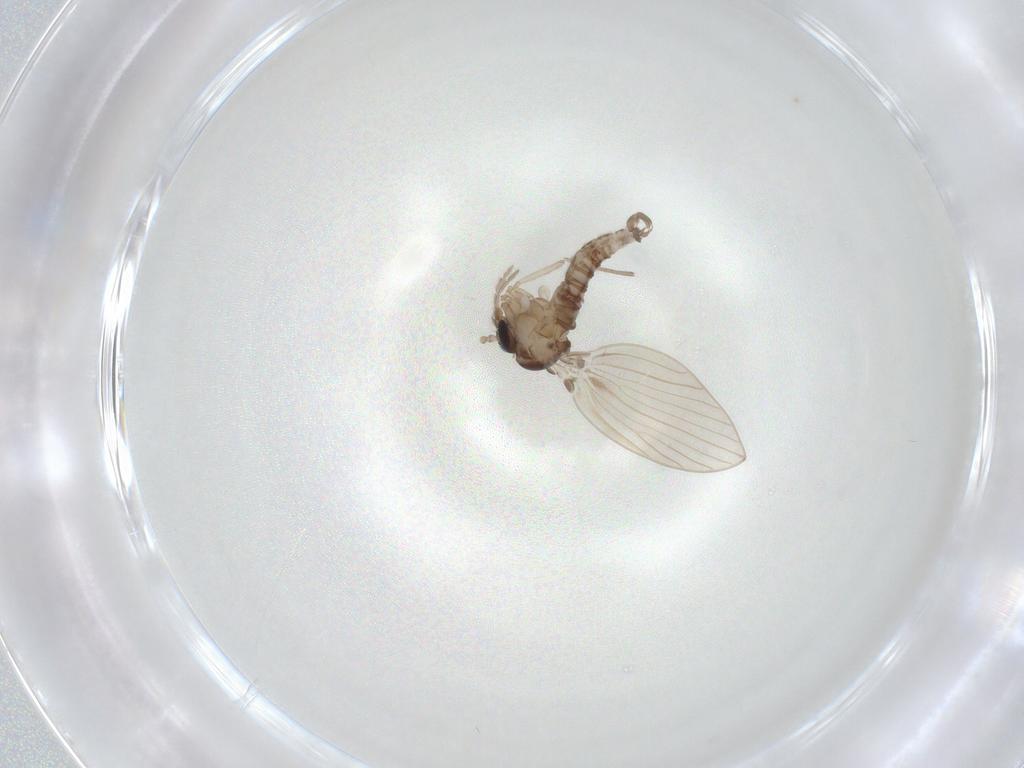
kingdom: Animalia
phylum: Arthropoda
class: Insecta
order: Diptera
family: Psychodidae
